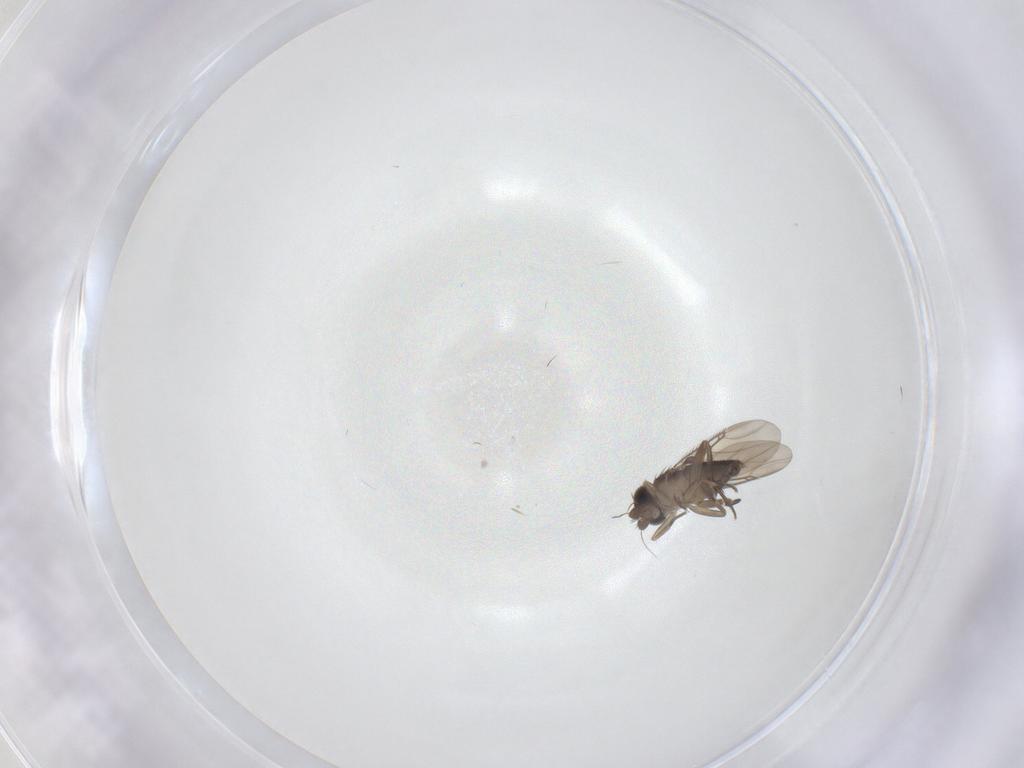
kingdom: Animalia
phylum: Arthropoda
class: Insecta
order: Diptera
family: Phoridae
